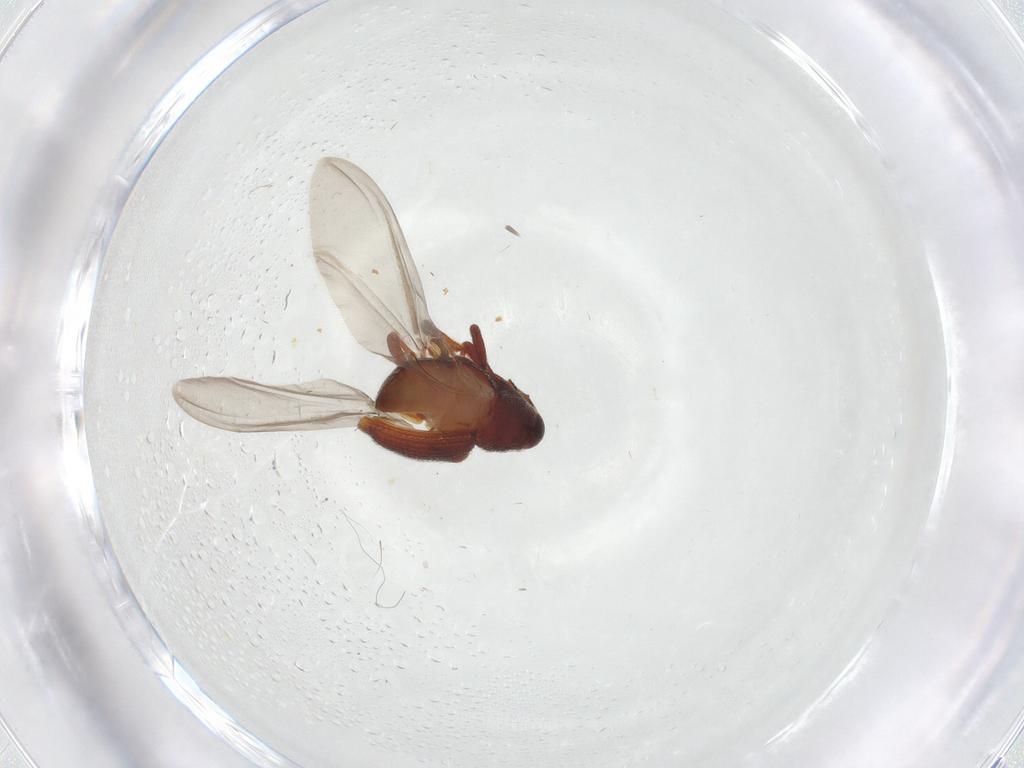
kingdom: Animalia
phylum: Arthropoda
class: Insecta
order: Coleoptera
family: Curculionidae
